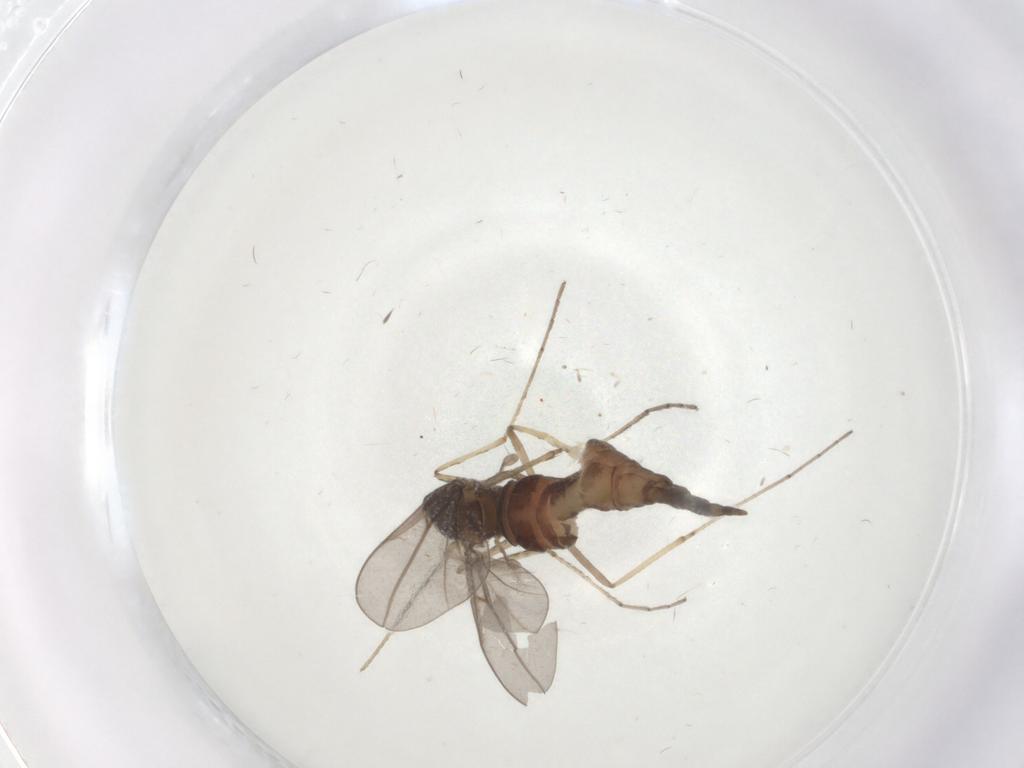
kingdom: Animalia
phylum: Arthropoda
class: Insecta
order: Diptera
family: Cecidomyiidae
